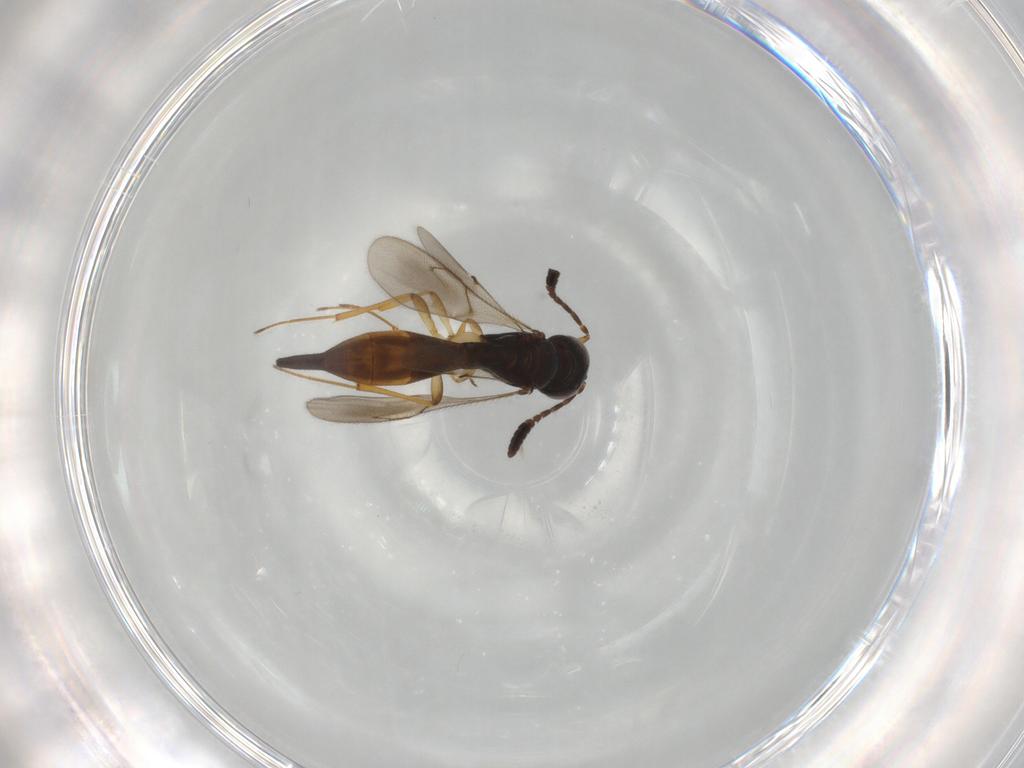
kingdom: Animalia
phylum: Arthropoda
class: Insecta
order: Hymenoptera
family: Scelionidae
